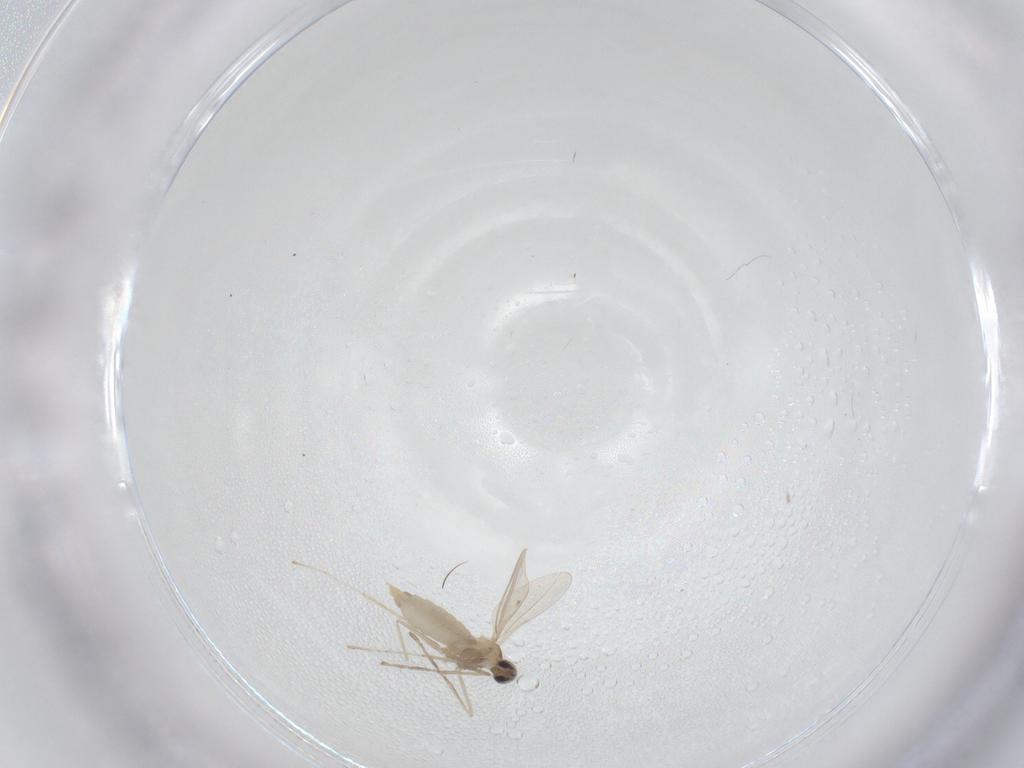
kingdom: Animalia
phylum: Arthropoda
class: Insecta
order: Diptera
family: Cecidomyiidae
